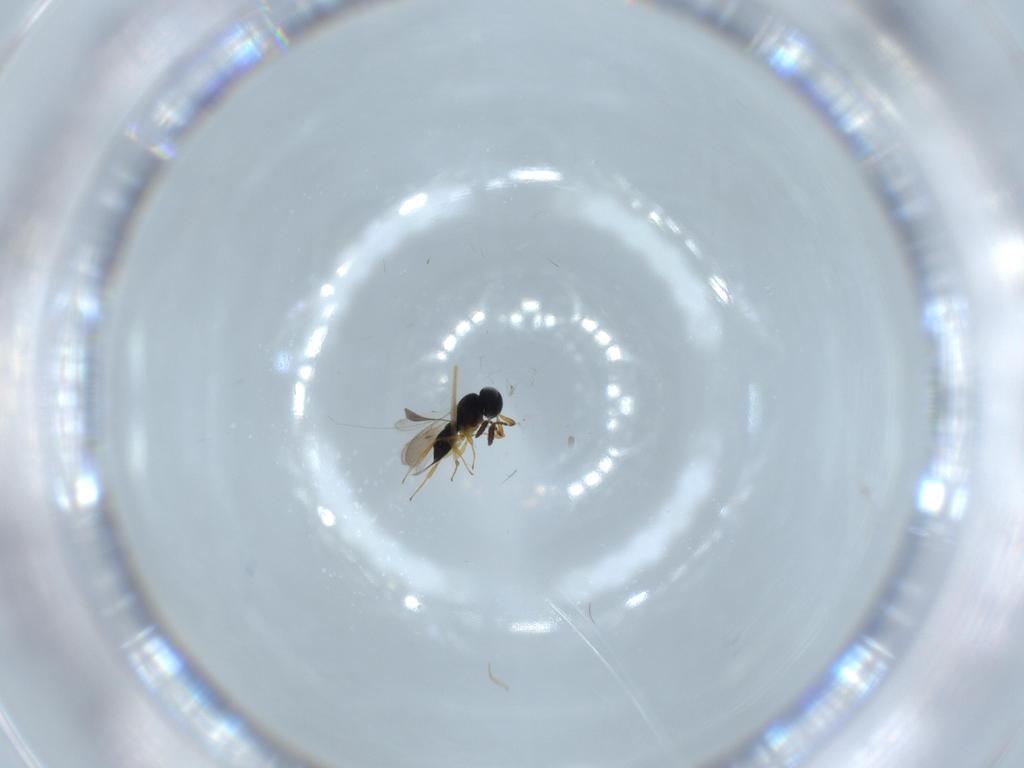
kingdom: Animalia
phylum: Arthropoda
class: Insecta
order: Hymenoptera
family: Scelionidae
